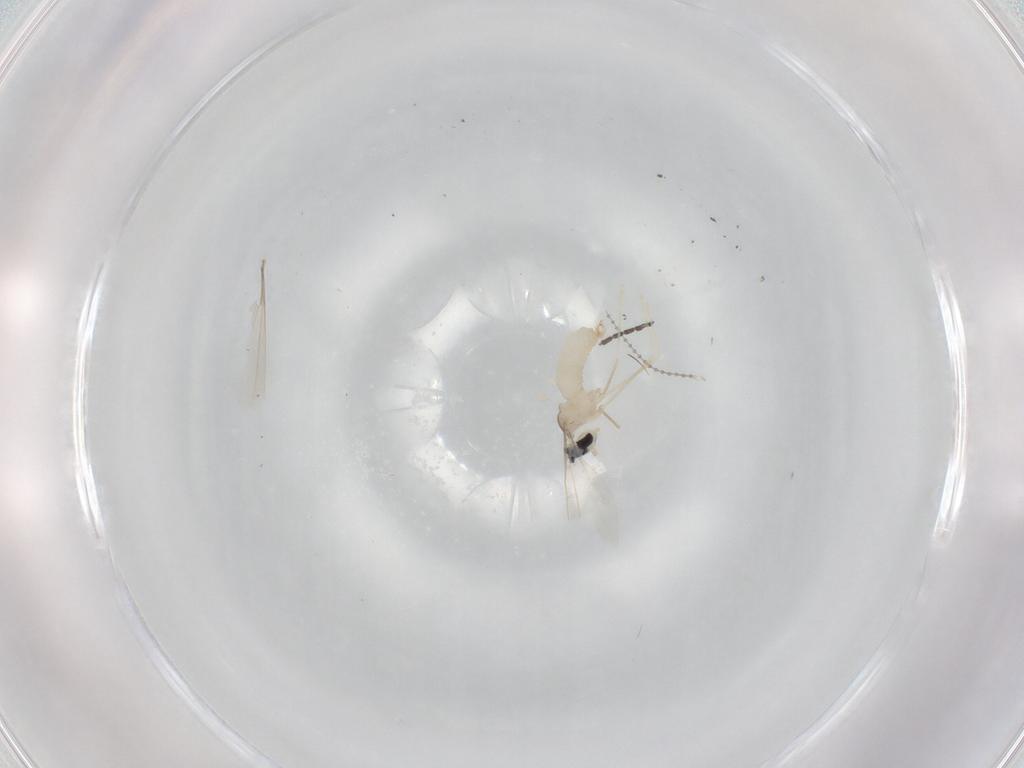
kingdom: Animalia
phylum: Arthropoda
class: Insecta
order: Diptera
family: Cecidomyiidae
